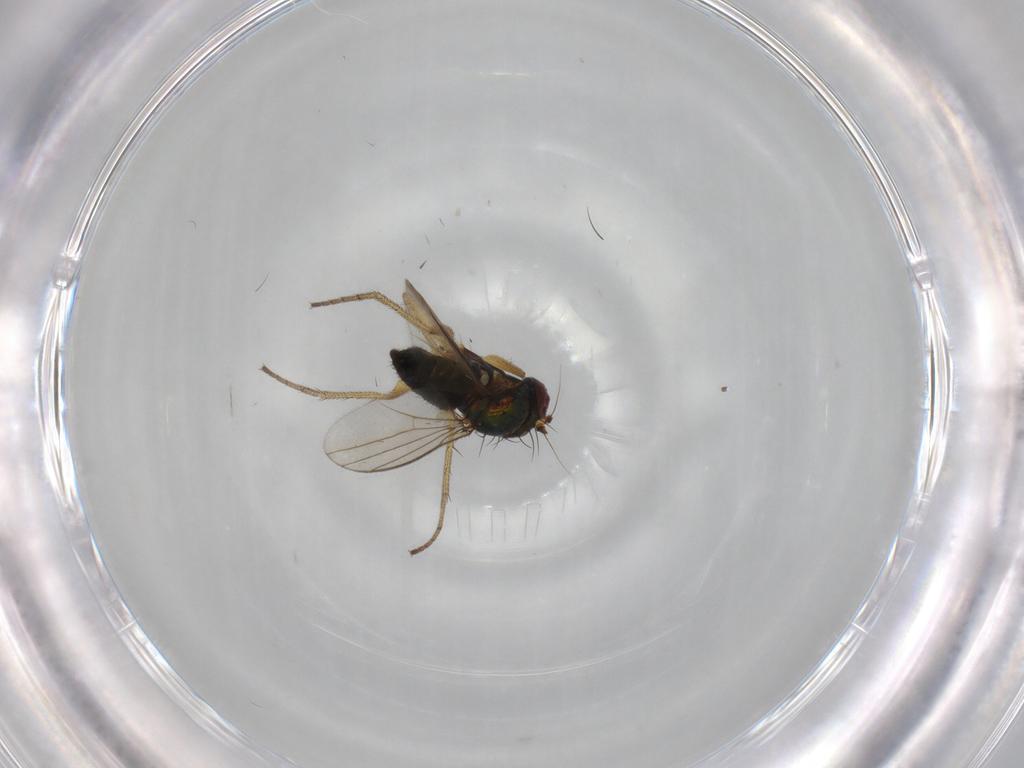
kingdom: Animalia
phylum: Arthropoda
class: Insecta
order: Diptera
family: Dolichopodidae
